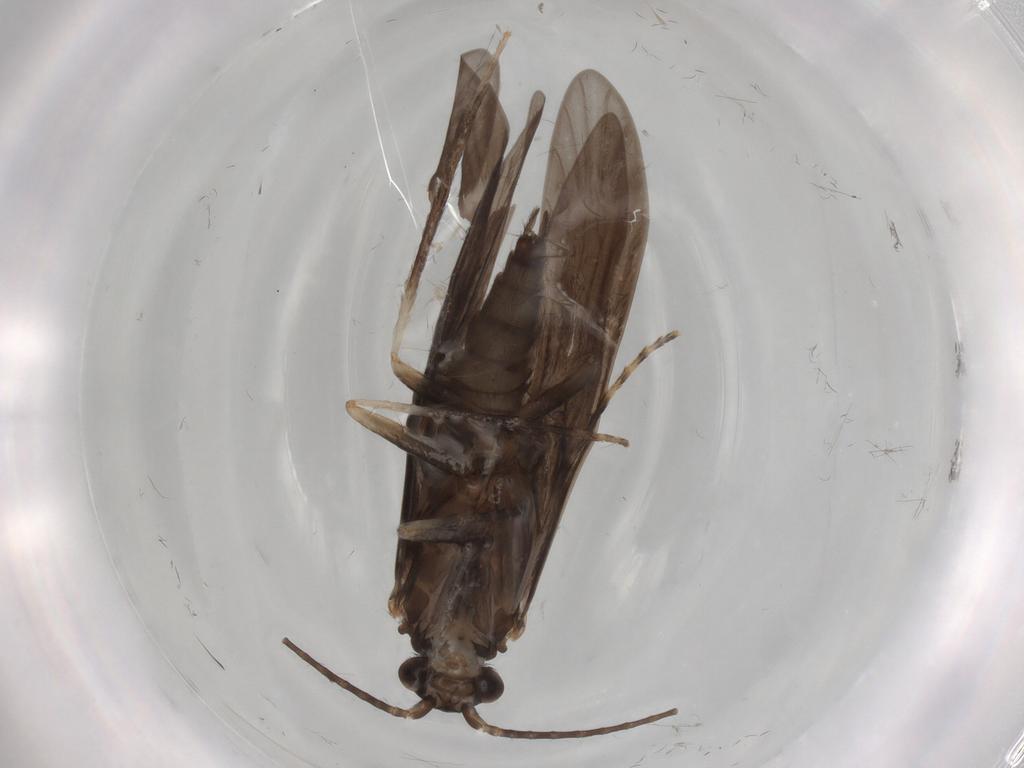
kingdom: Animalia
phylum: Arthropoda
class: Insecta
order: Trichoptera
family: Xiphocentronidae
